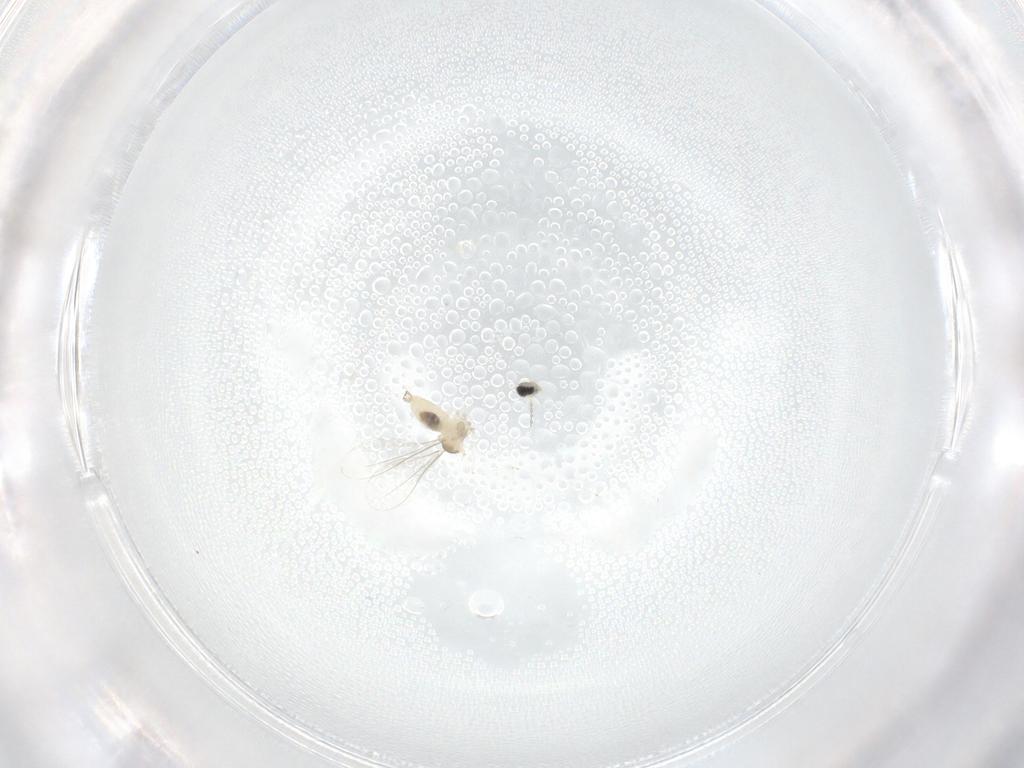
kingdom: Animalia
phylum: Arthropoda
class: Insecta
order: Diptera
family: Cecidomyiidae
